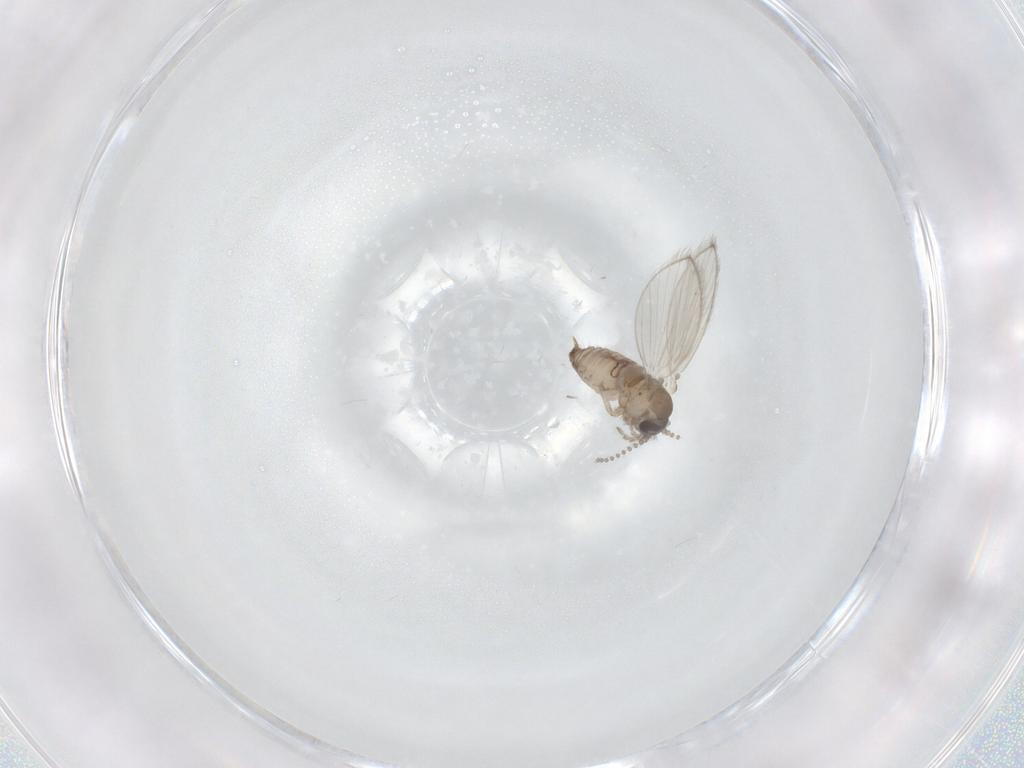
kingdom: Animalia
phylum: Arthropoda
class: Insecta
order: Diptera
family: Psychodidae
